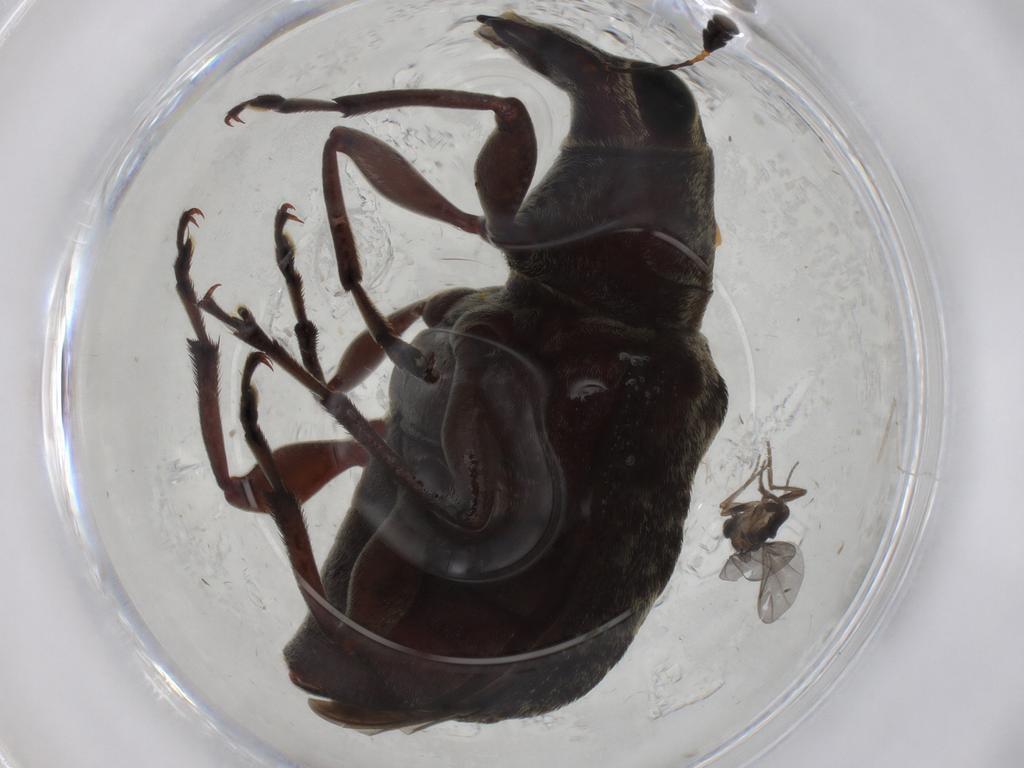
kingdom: Animalia
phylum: Arthropoda
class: Insecta
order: Coleoptera
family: Anthribidae
